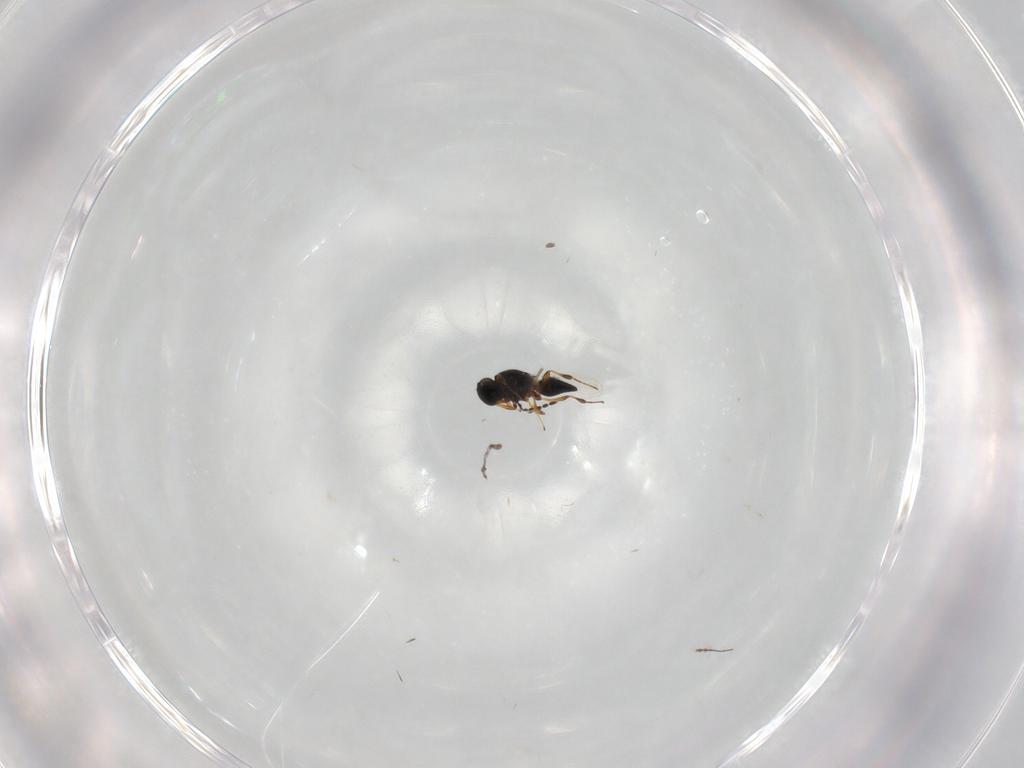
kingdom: Animalia
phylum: Arthropoda
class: Insecta
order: Hymenoptera
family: Platygastridae
